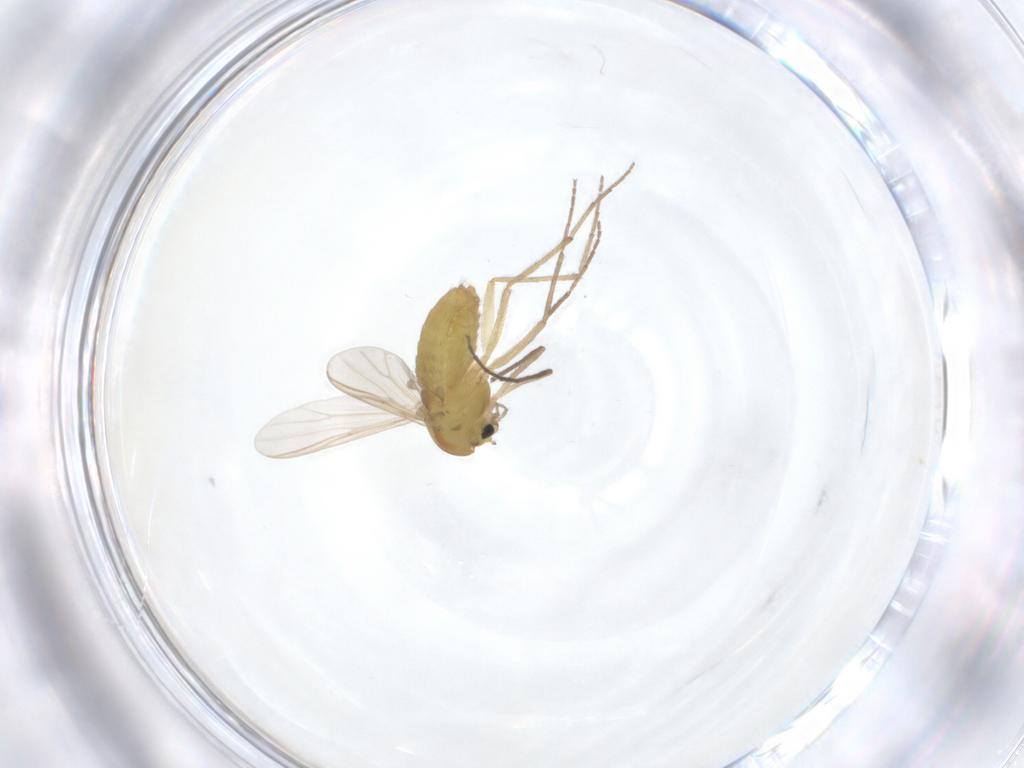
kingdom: Animalia
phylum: Arthropoda
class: Insecta
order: Diptera
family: Chironomidae
